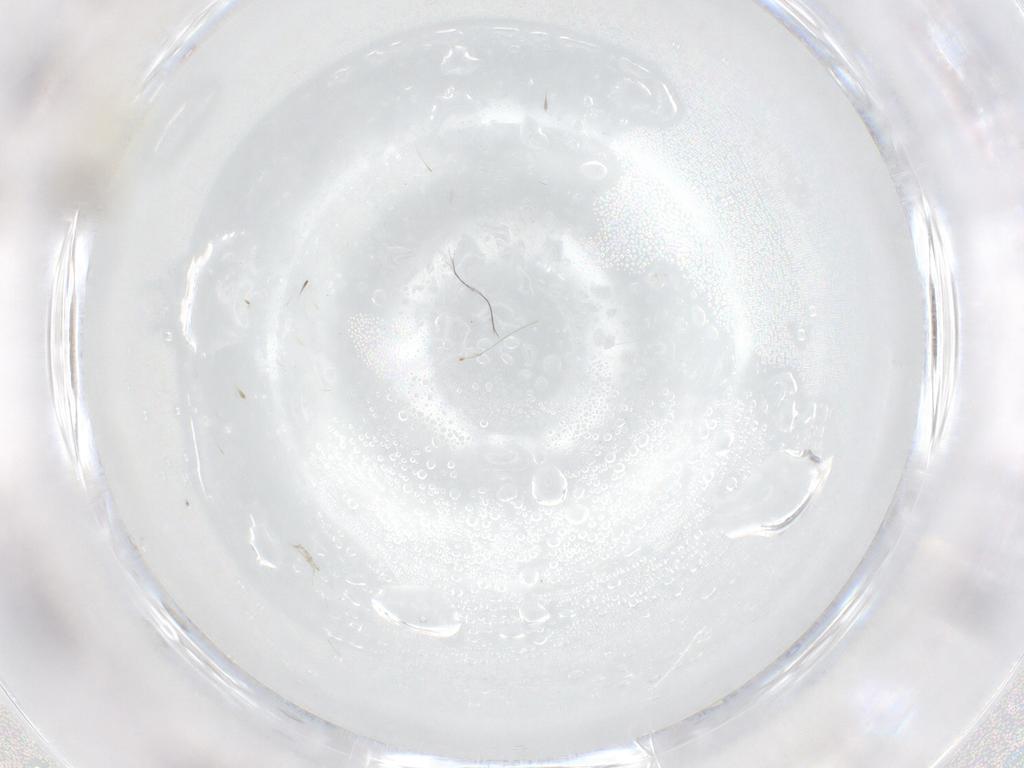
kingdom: Animalia
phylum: Arthropoda
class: Insecta
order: Diptera
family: Chironomidae
